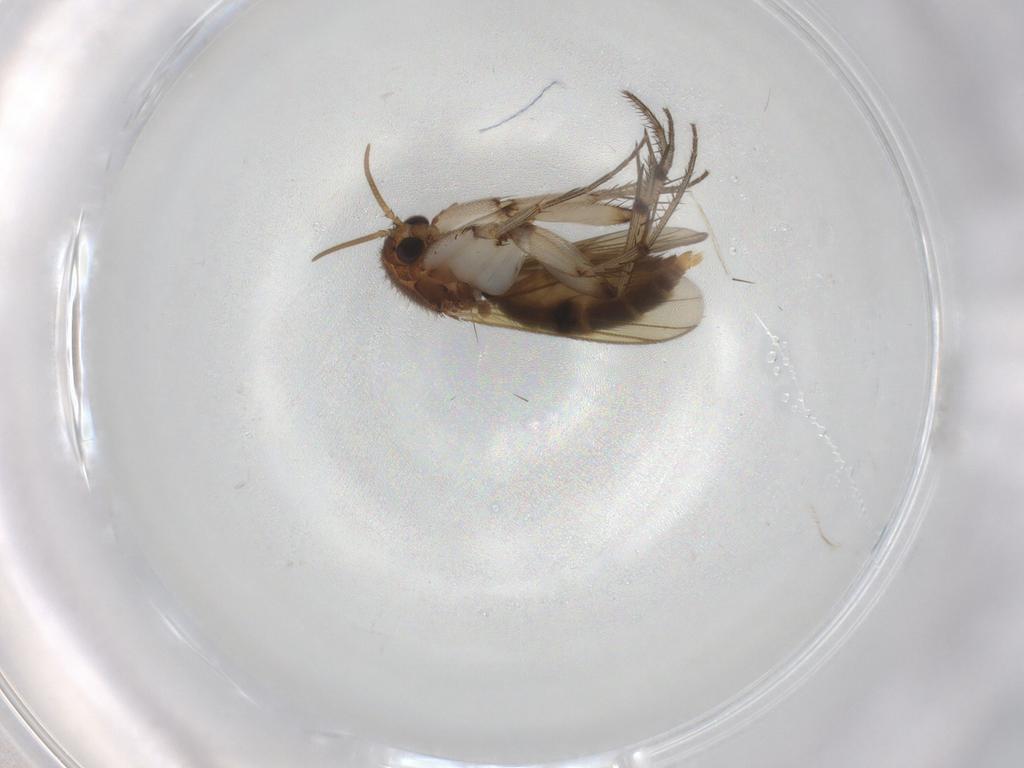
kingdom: Animalia
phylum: Arthropoda
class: Insecta
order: Diptera
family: Mycetophilidae
